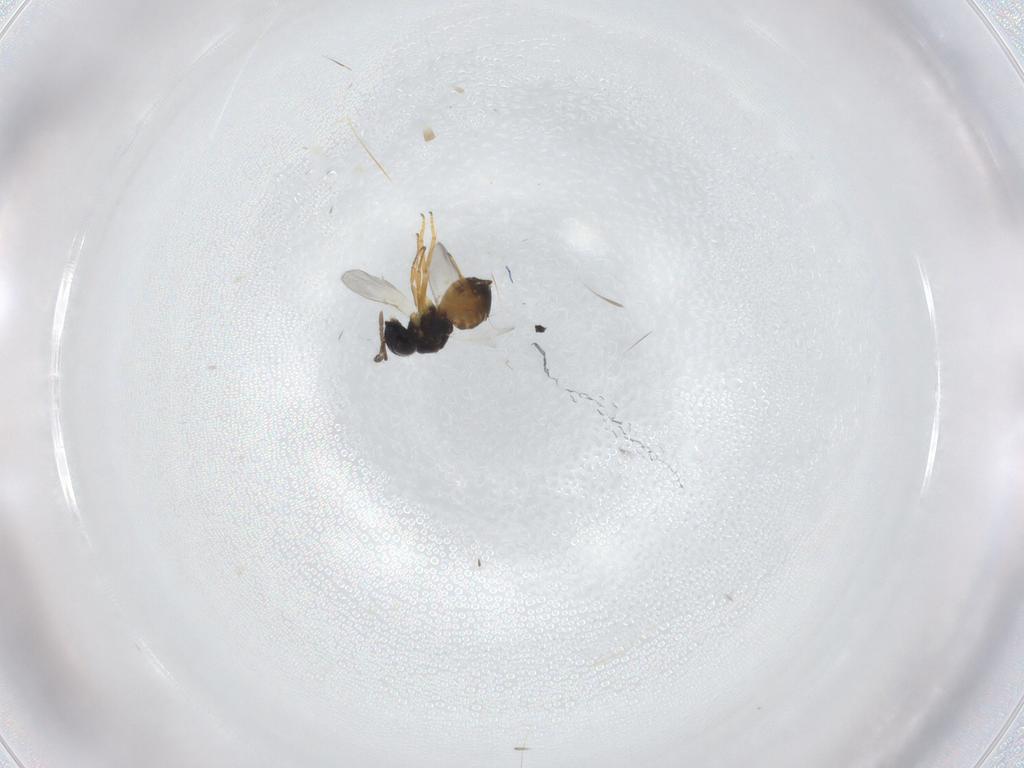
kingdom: Animalia
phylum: Arthropoda
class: Insecta
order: Hymenoptera
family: Encyrtidae
